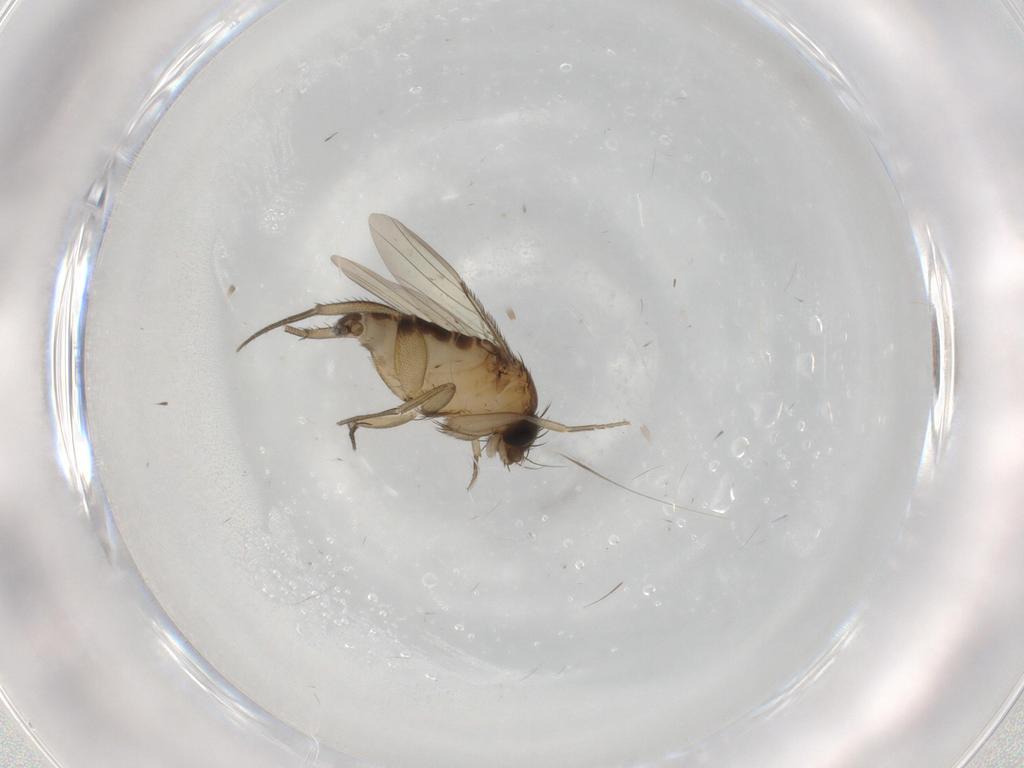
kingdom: Animalia
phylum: Arthropoda
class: Insecta
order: Diptera
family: Phoridae
